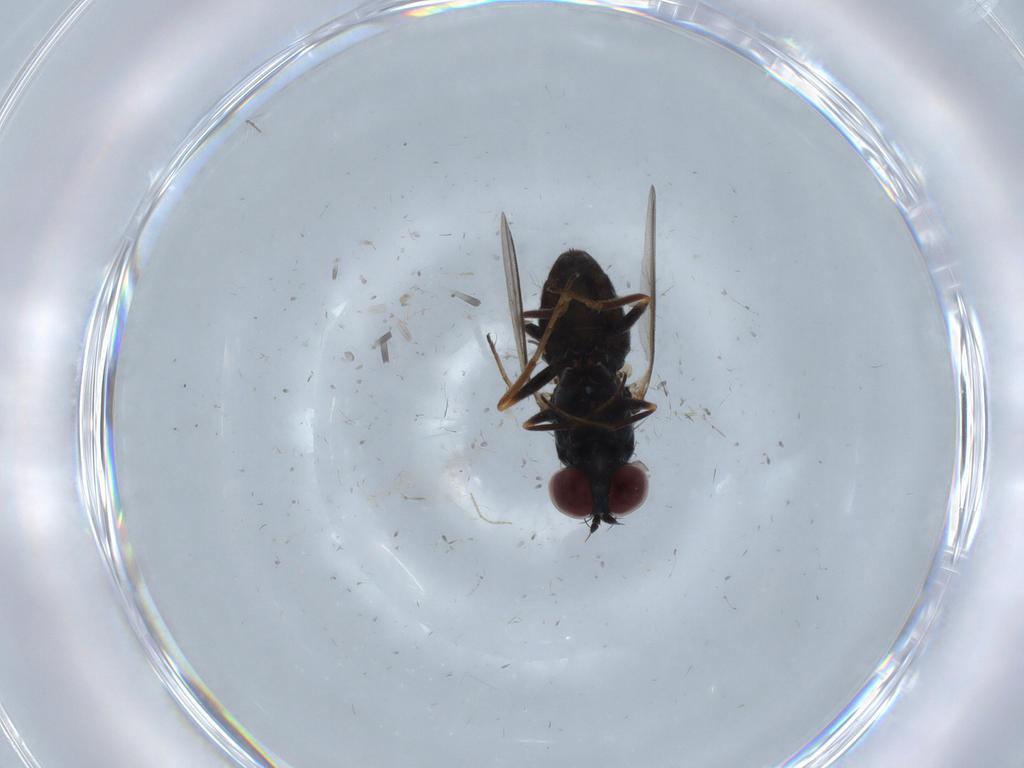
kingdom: Animalia
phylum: Arthropoda
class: Insecta
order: Diptera
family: Dolichopodidae
